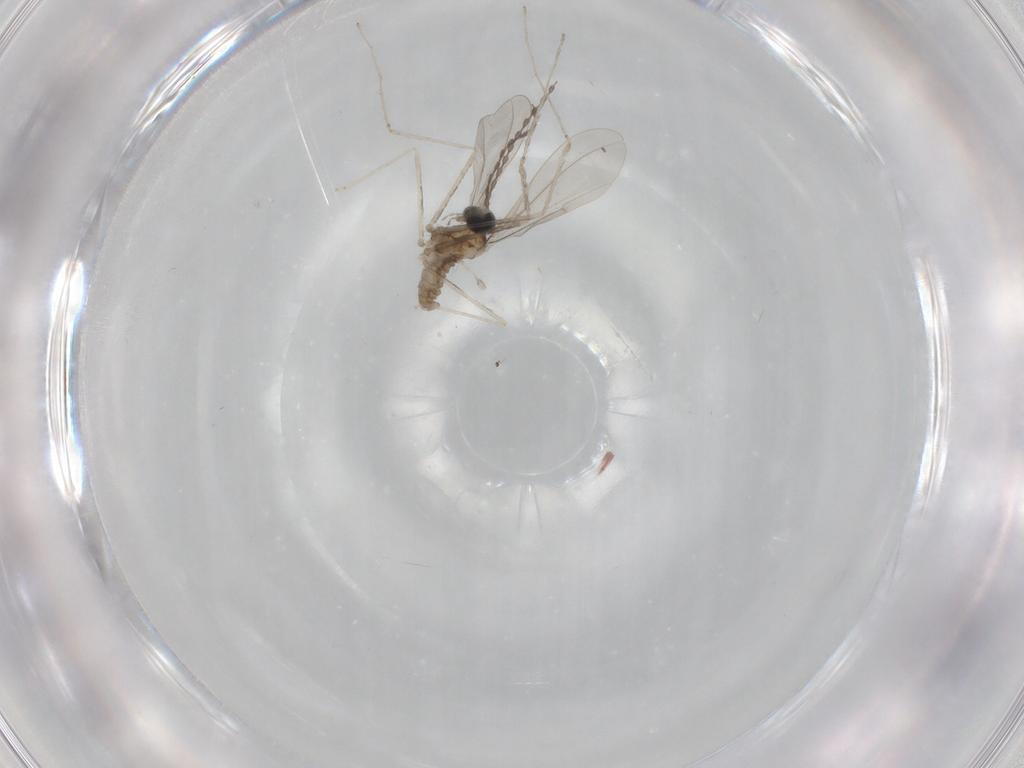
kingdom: Animalia
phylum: Arthropoda
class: Insecta
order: Diptera
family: Cecidomyiidae
